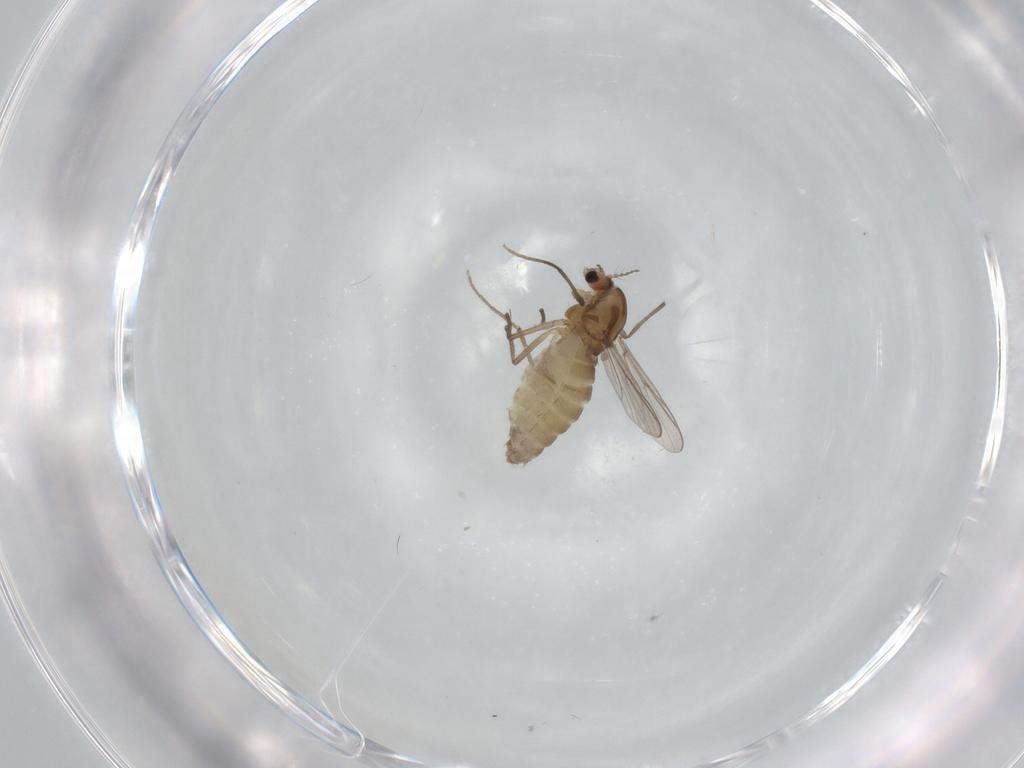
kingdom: Animalia
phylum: Arthropoda
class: Insecta
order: Diptera
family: Chironomidae
